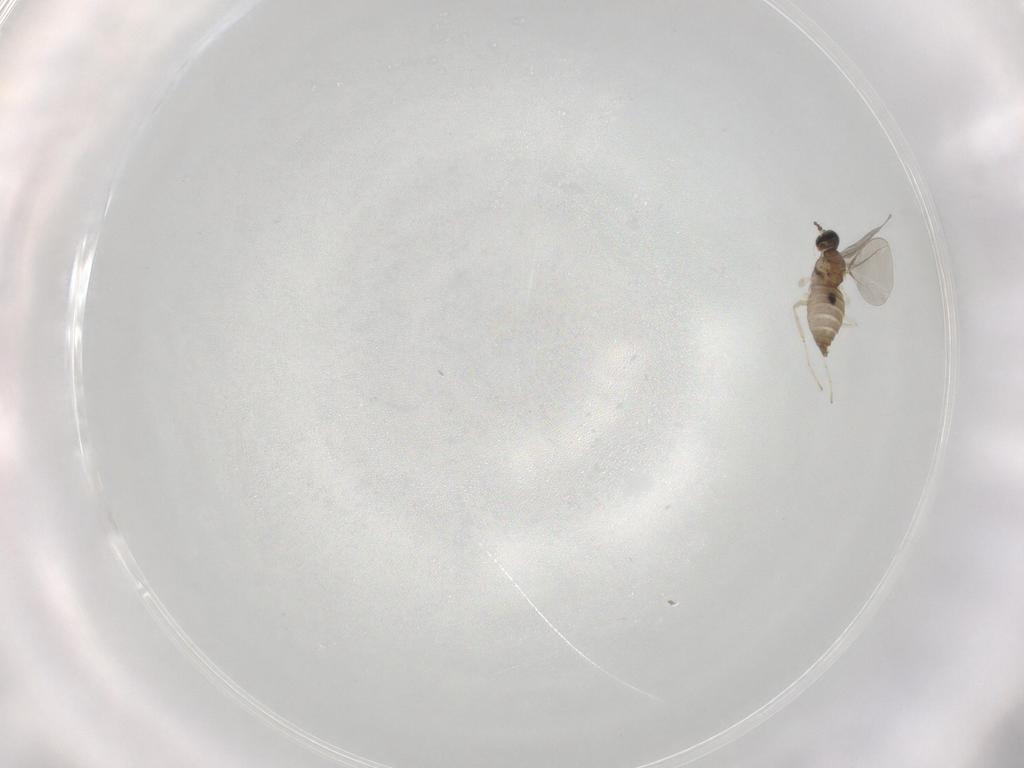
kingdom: Animalia
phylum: Arthropoda
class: Insecta
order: Diptera
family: Cecidomyiidae
